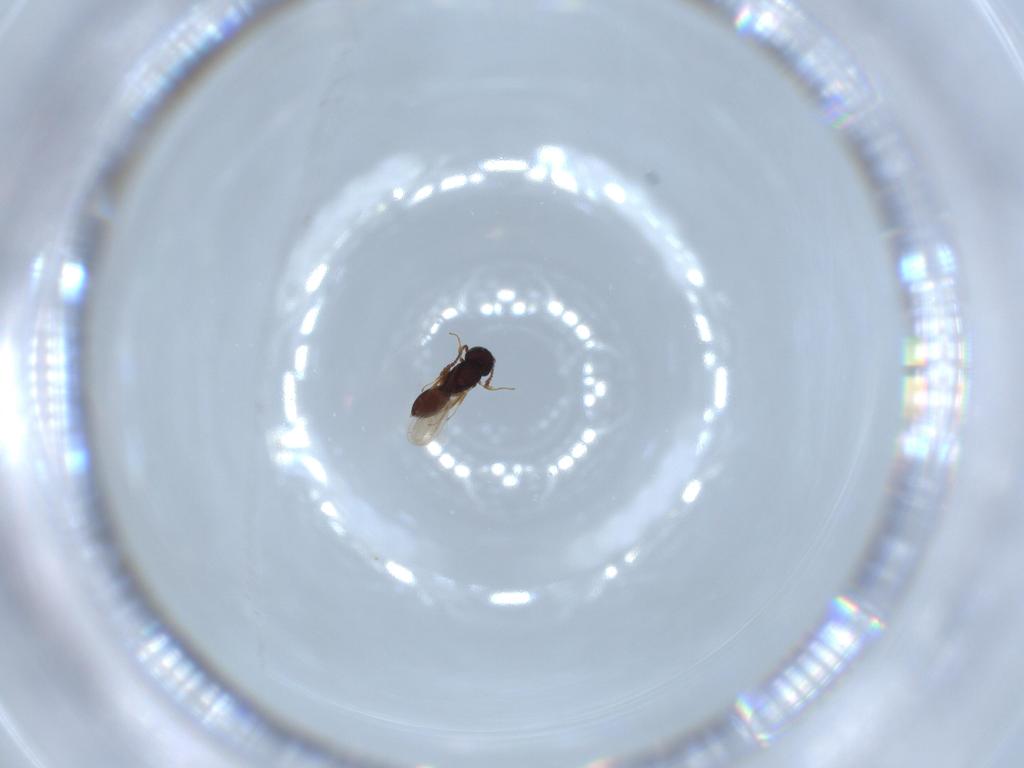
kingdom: Animalia
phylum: Arthropoda
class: Insecta
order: Hymenoptera
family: Scelionidae
